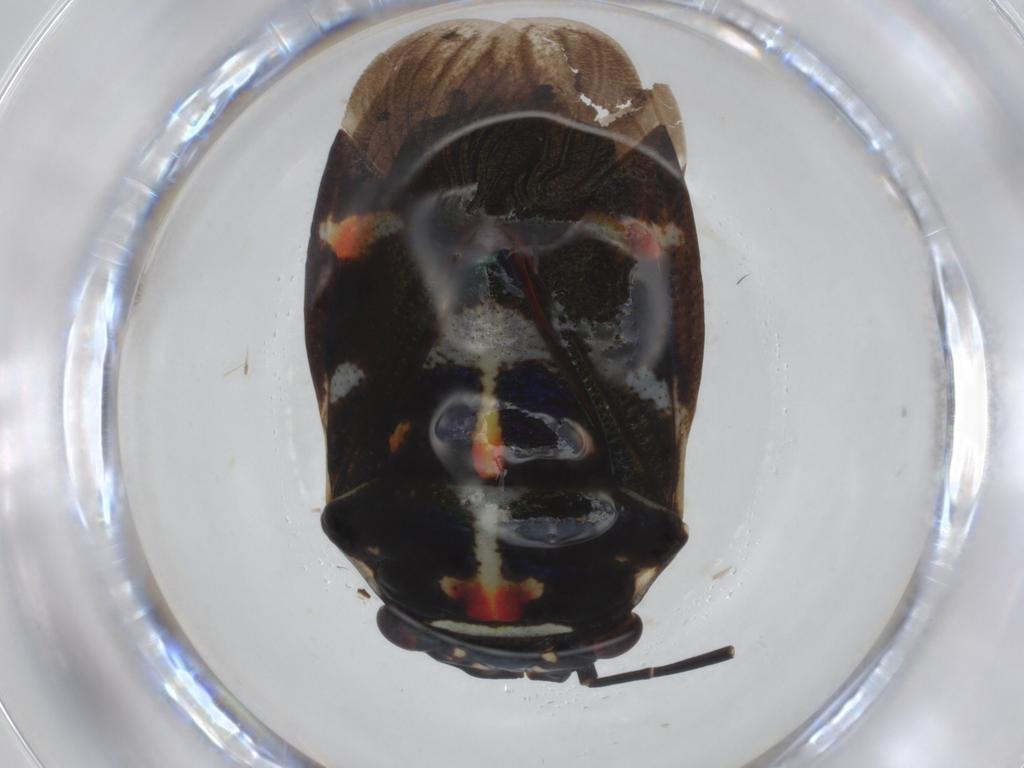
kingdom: Animalia
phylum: Arthropoda
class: Insecta
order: Hemiptera
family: Pentatomidae
